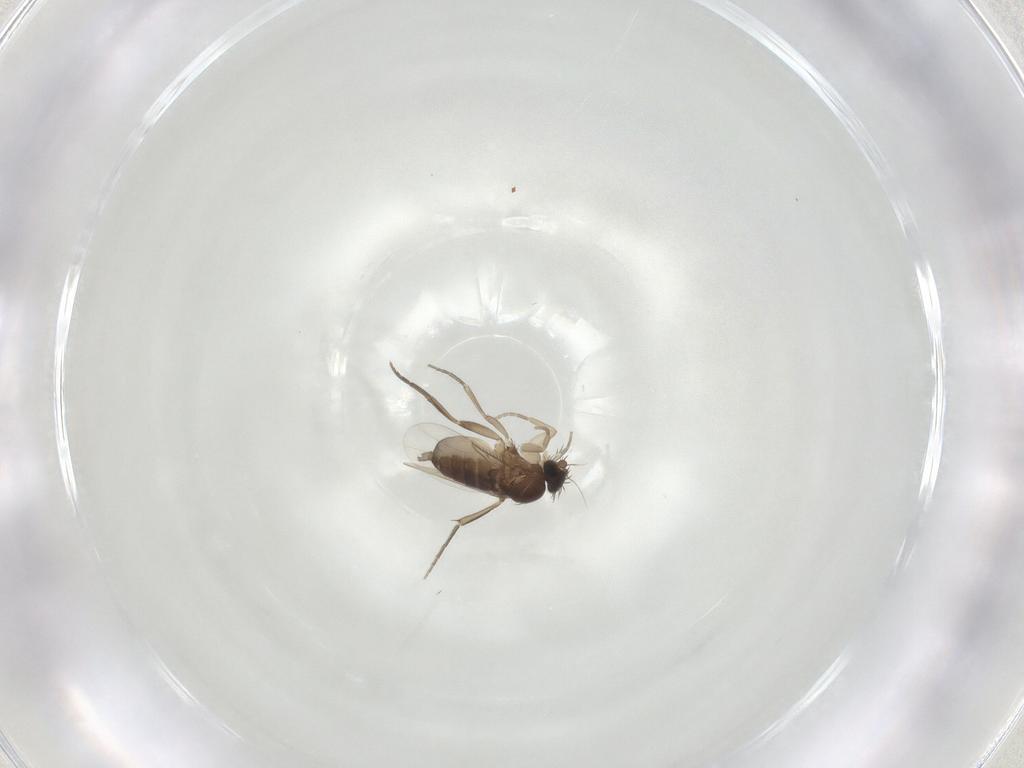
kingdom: Animalia
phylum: Arthropoda
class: Insecta
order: Diptera
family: Phoridae
